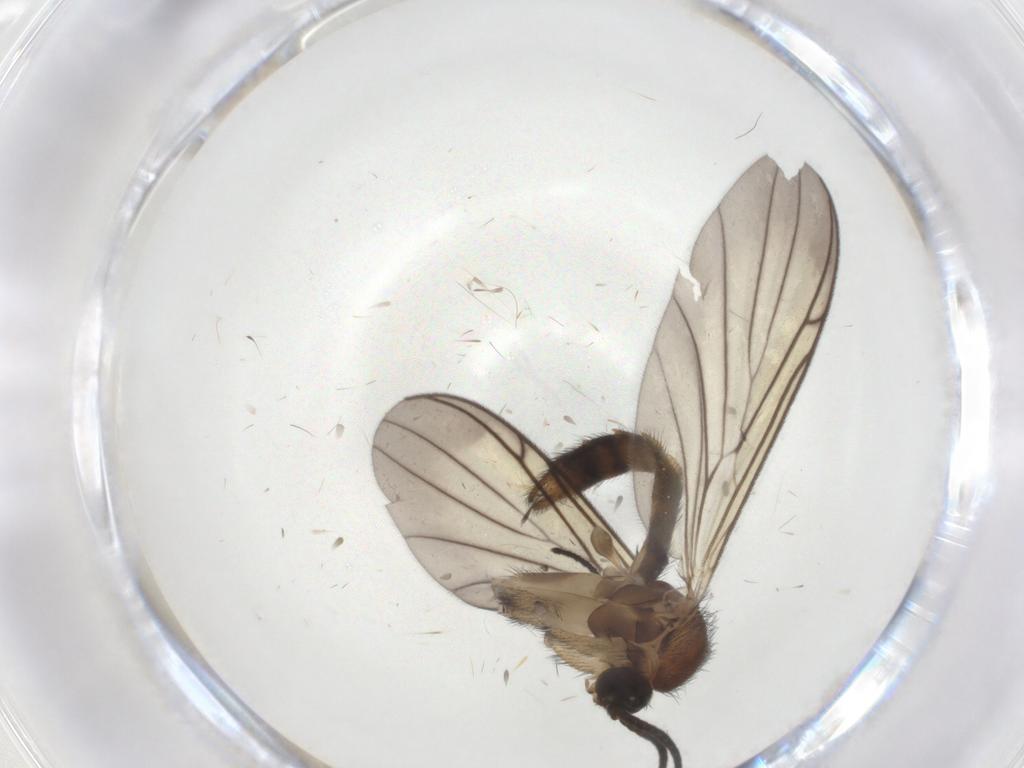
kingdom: Animalia
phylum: Arthropoda
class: Insecta
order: Diptera
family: Keroplatidae
